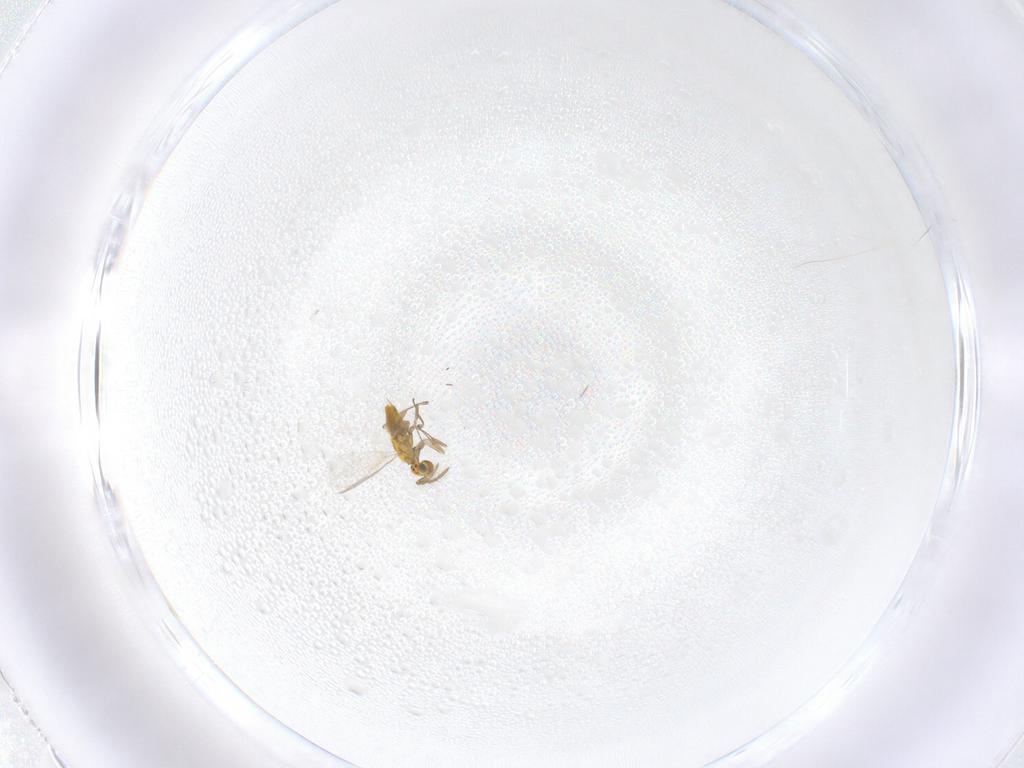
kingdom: Animalia
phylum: Arthropoda
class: Insecta
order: Hymenoptera
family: Aphelinidae
